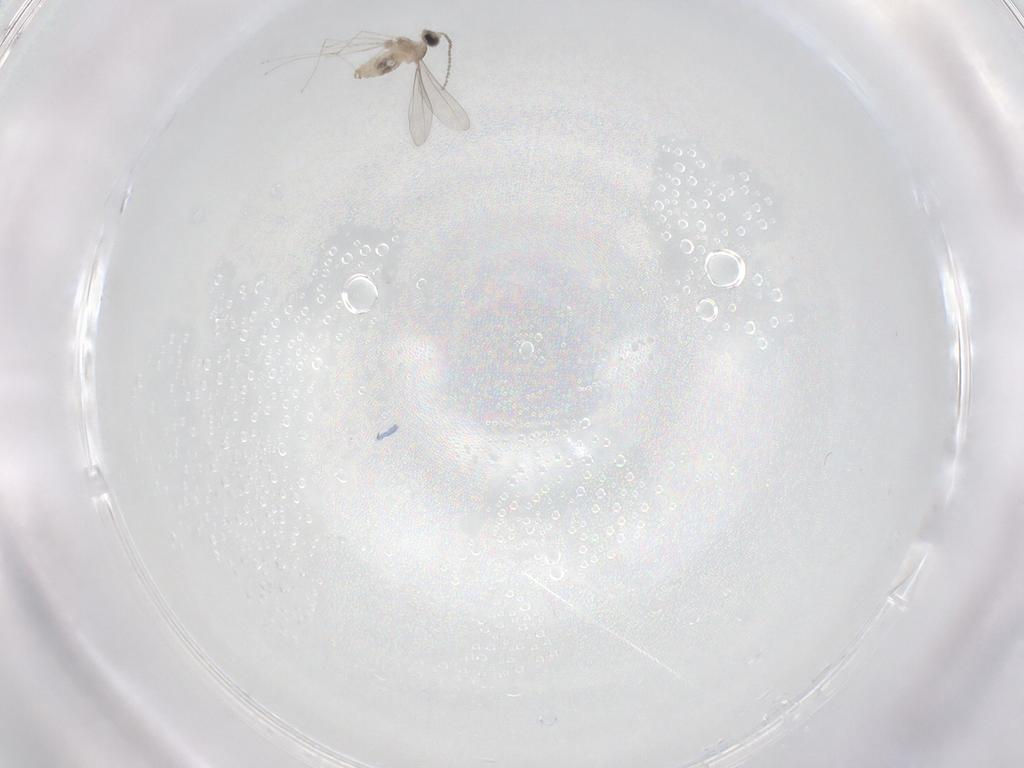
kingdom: Animalia
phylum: Arthropoda
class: Insecta
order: Diptera
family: Cecidomyiidae
